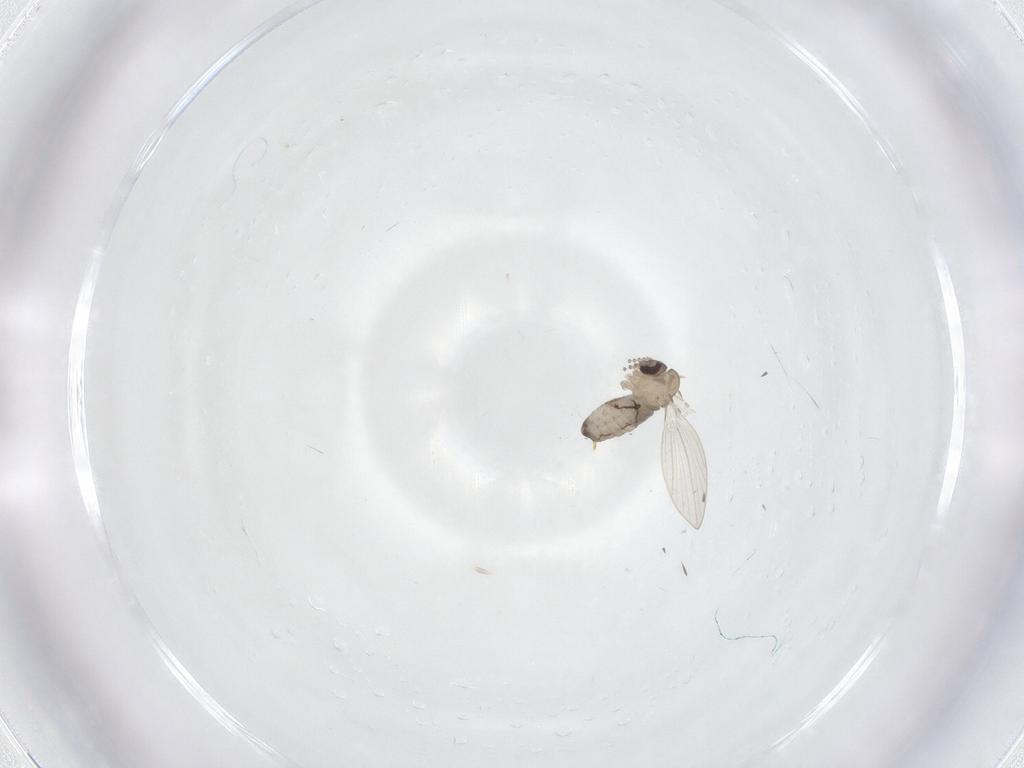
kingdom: Animalia
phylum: Arthropoda
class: Insecta
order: Diptera
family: Psychodidae
